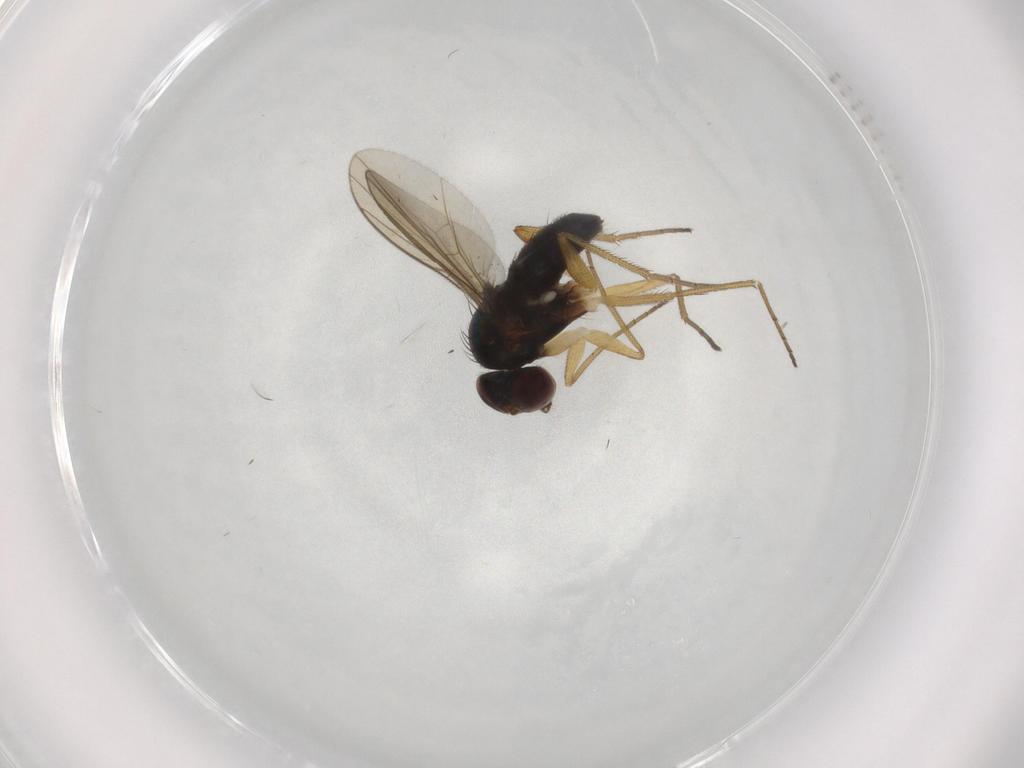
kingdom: Animalia
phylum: Arthropoda
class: Insecta
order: Diptera
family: Dolichopodidae
